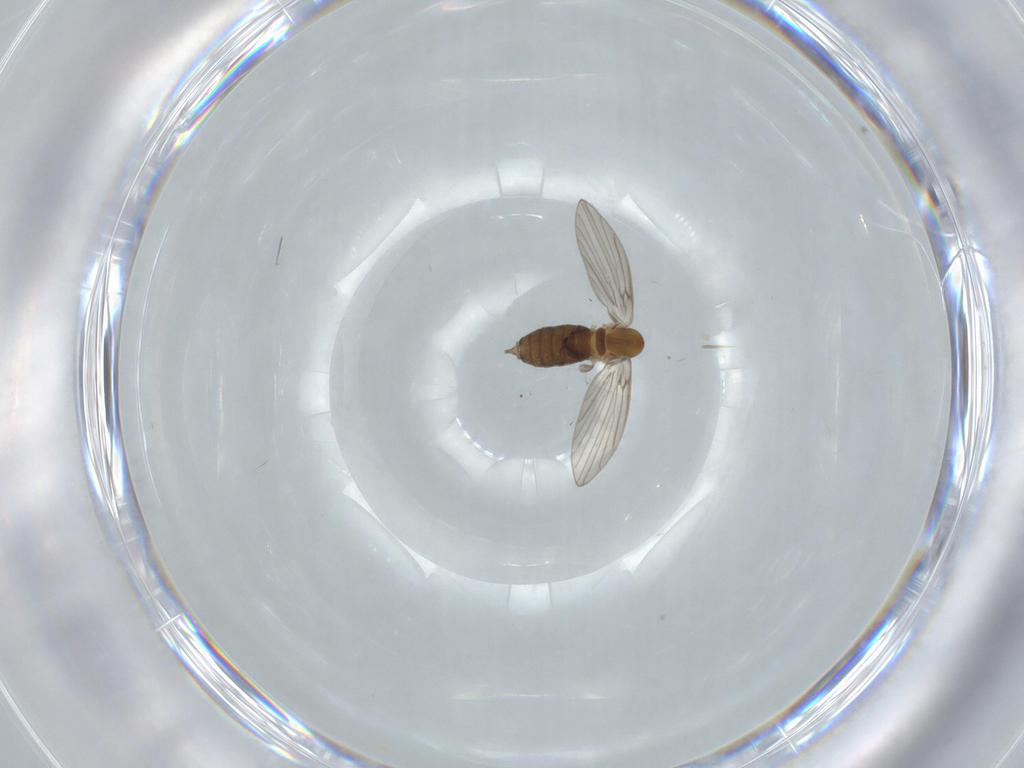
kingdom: Animalia
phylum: Arthropoda
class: Insecta
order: Diptera
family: Psychodidae
